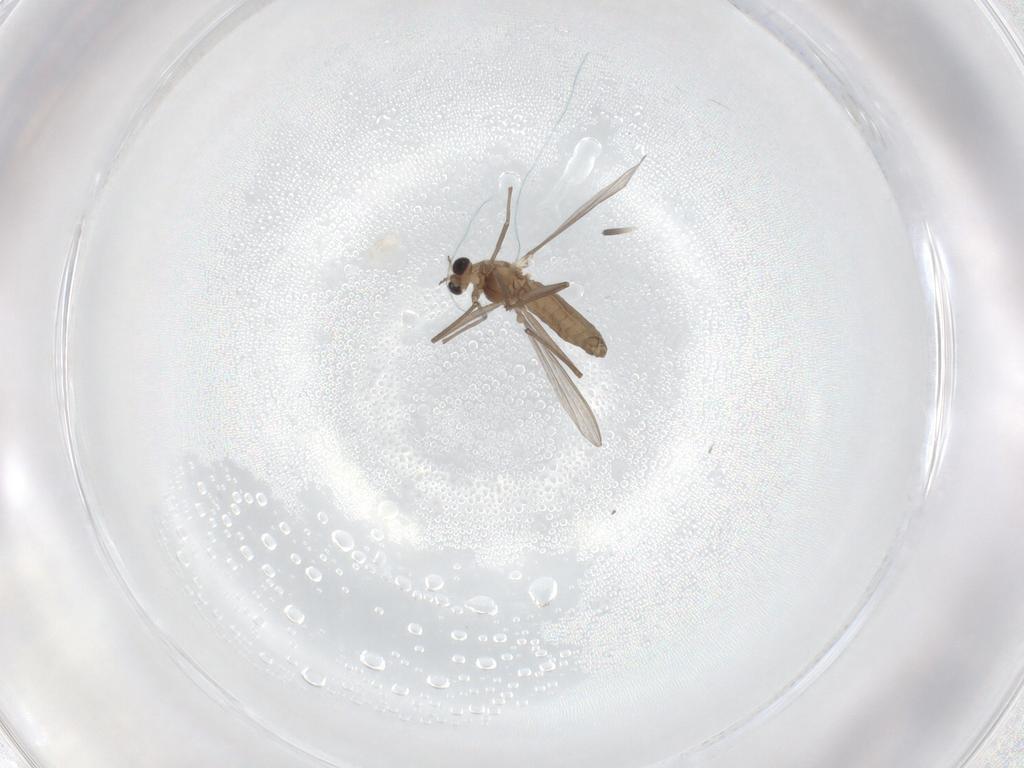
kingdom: Animalia
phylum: Arthropoda
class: Insecta
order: Diptera
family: Chironomidae
